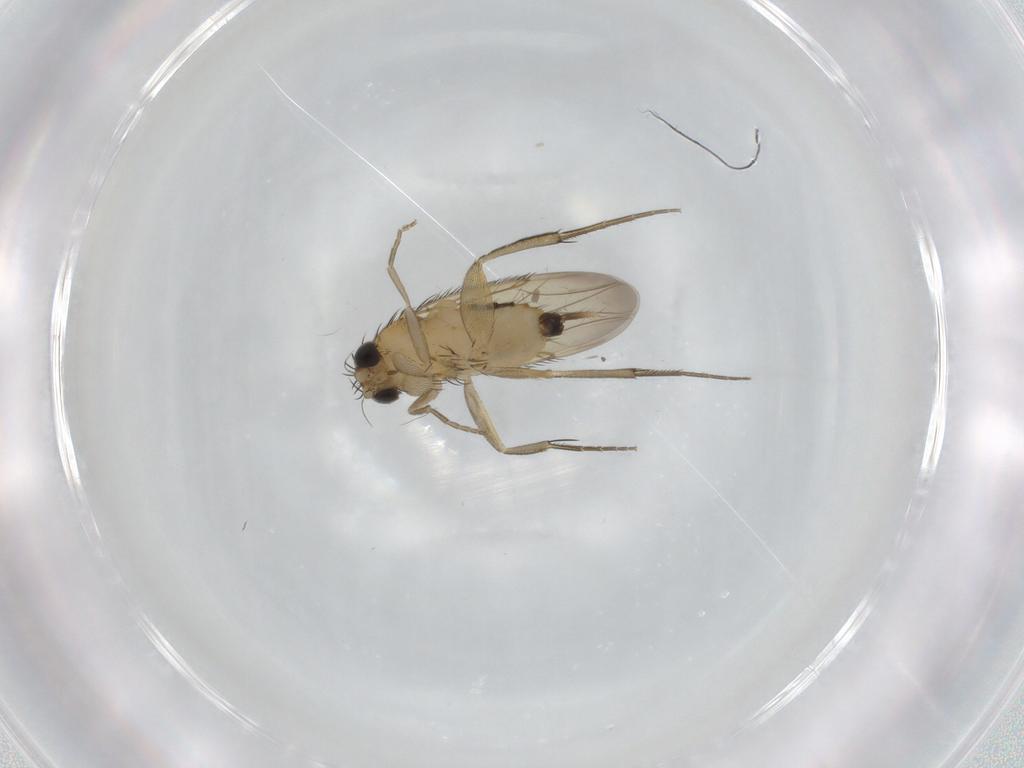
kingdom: Animalia
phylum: Arthropoda
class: Insecta
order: Diptera
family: Phoridae
